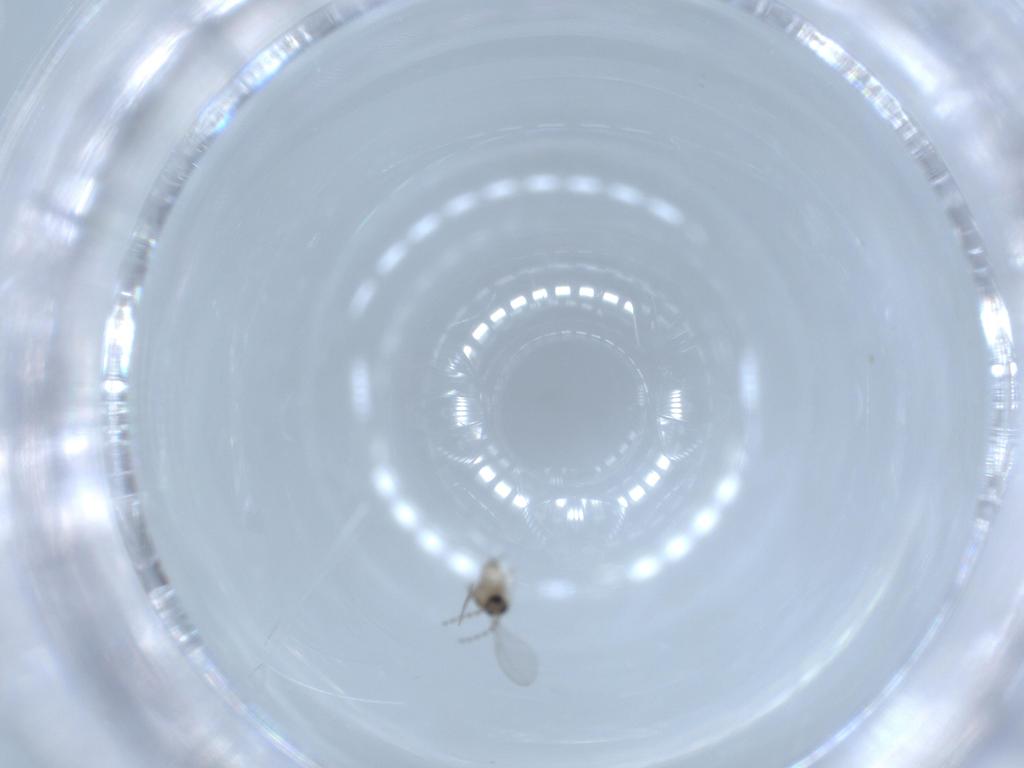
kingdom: Animalia
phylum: Arthropoda
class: Insecta
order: Diptera
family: Cecidomyiidae
